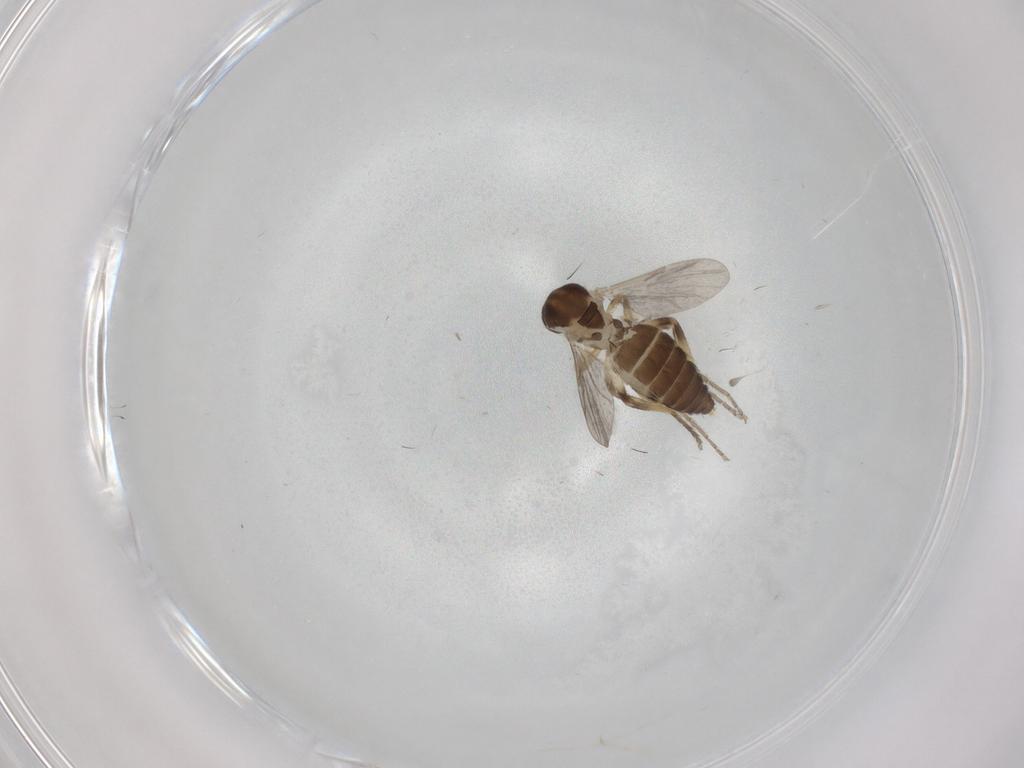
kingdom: Animalia
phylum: Arthropoda
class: Insecta
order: Diptera
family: Ceratopogonidae
